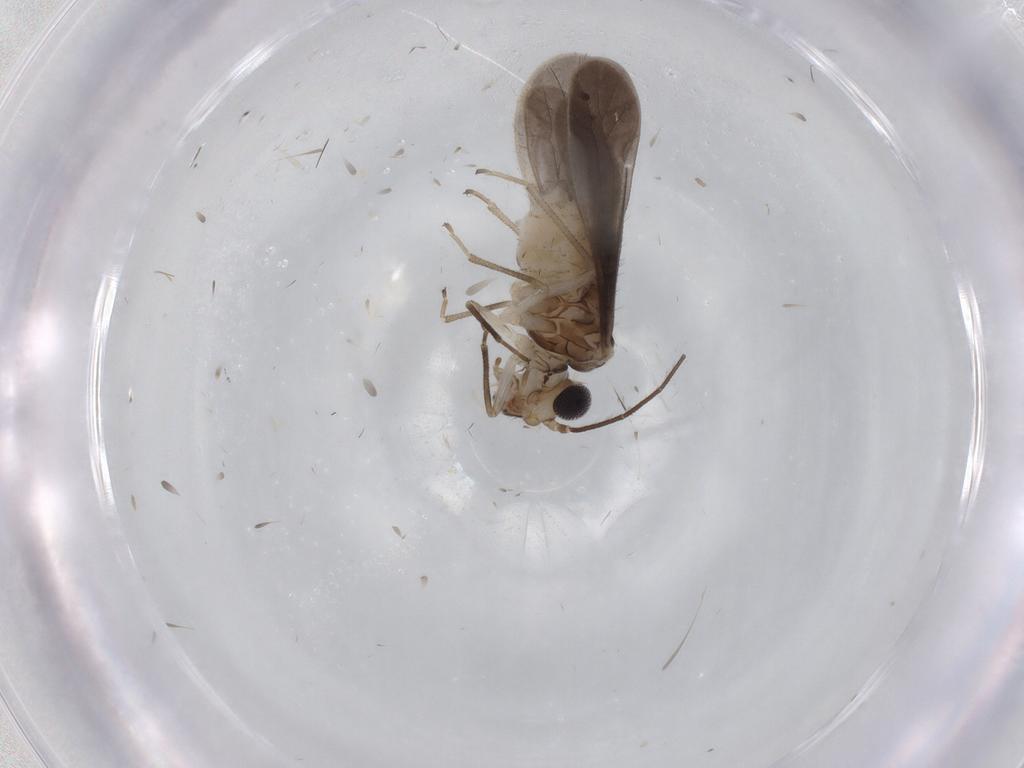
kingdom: Animalia
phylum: Arthropoda
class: Insecta
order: Psocodea
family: Caeciliusidae
